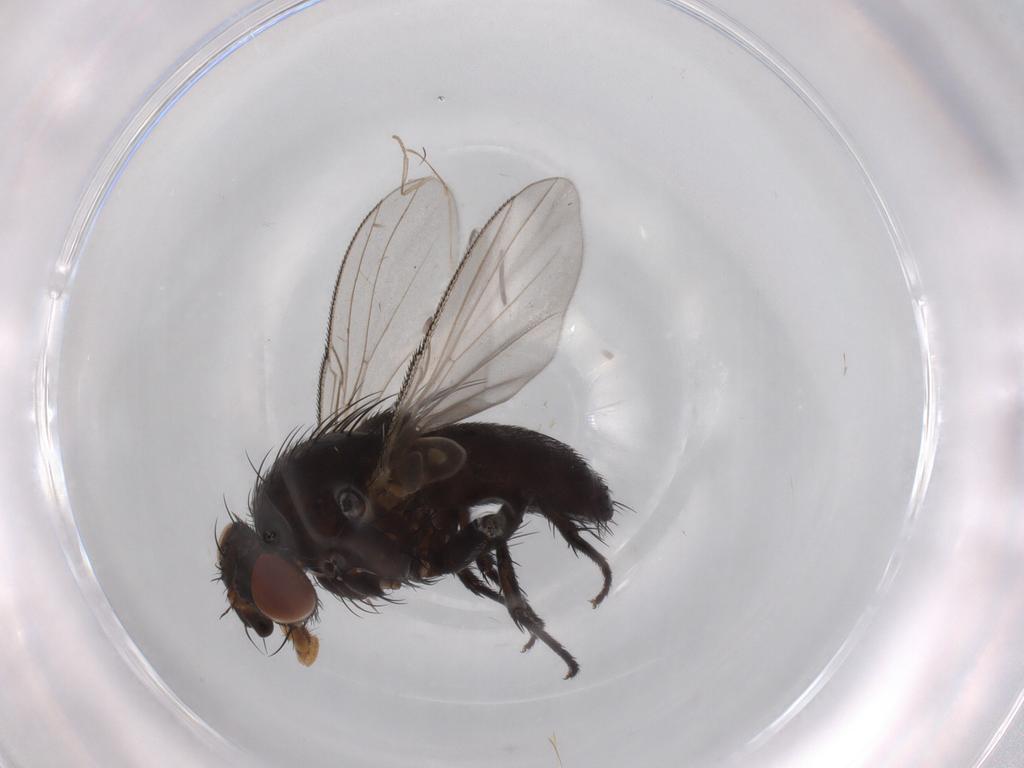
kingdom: Animalia
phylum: Arthropoda
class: Insecta
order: Diptera
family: Tachinidae
